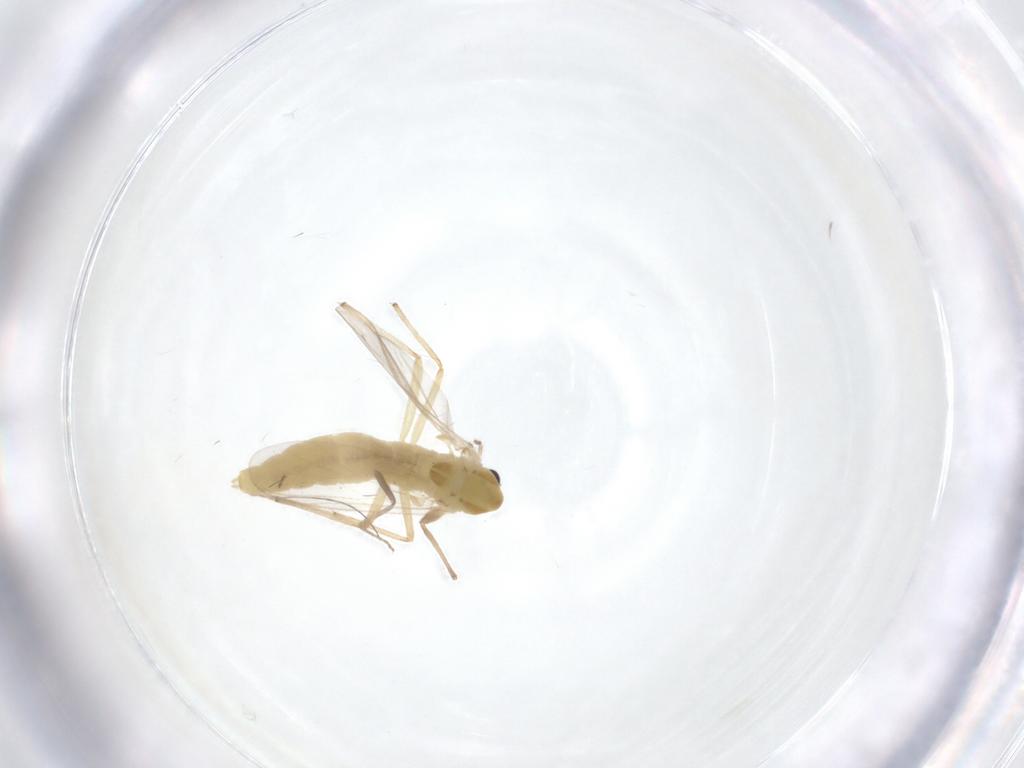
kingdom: Animalia
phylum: Arthropoda
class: Insecta
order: Diptera
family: Chironomidae
